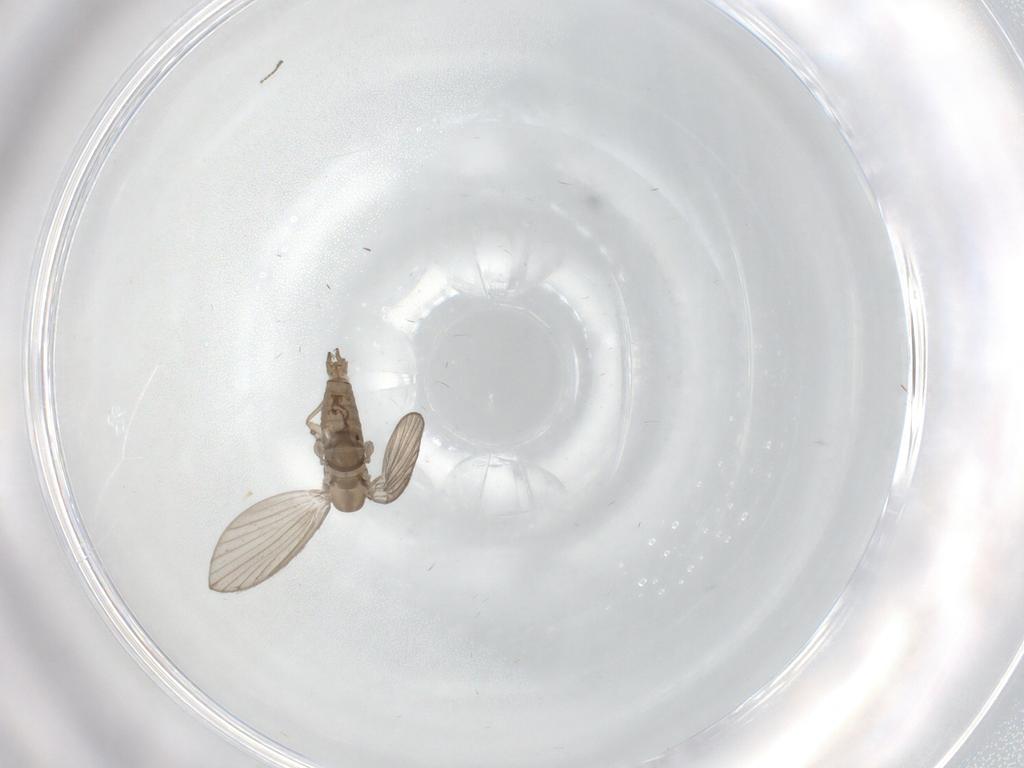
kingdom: Animalia
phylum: Arthropoda
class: Insecta
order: Diptera
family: Psychodidae
